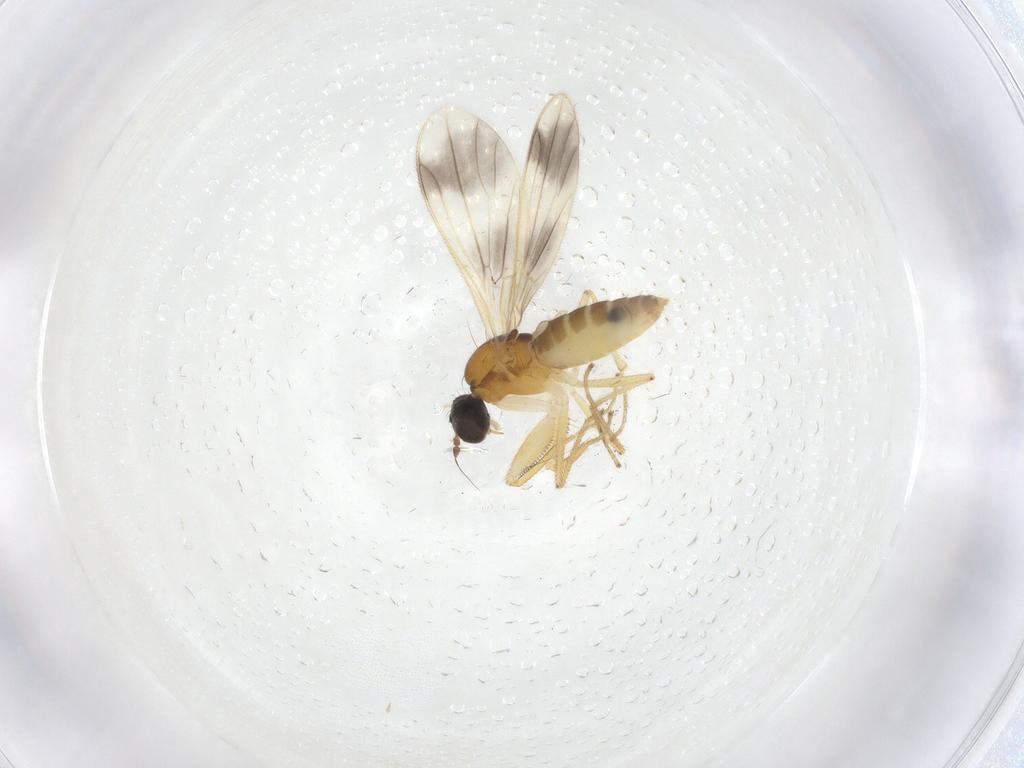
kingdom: Animalia
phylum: Arthropoda
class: Insecta
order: Diptera
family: Empididae
